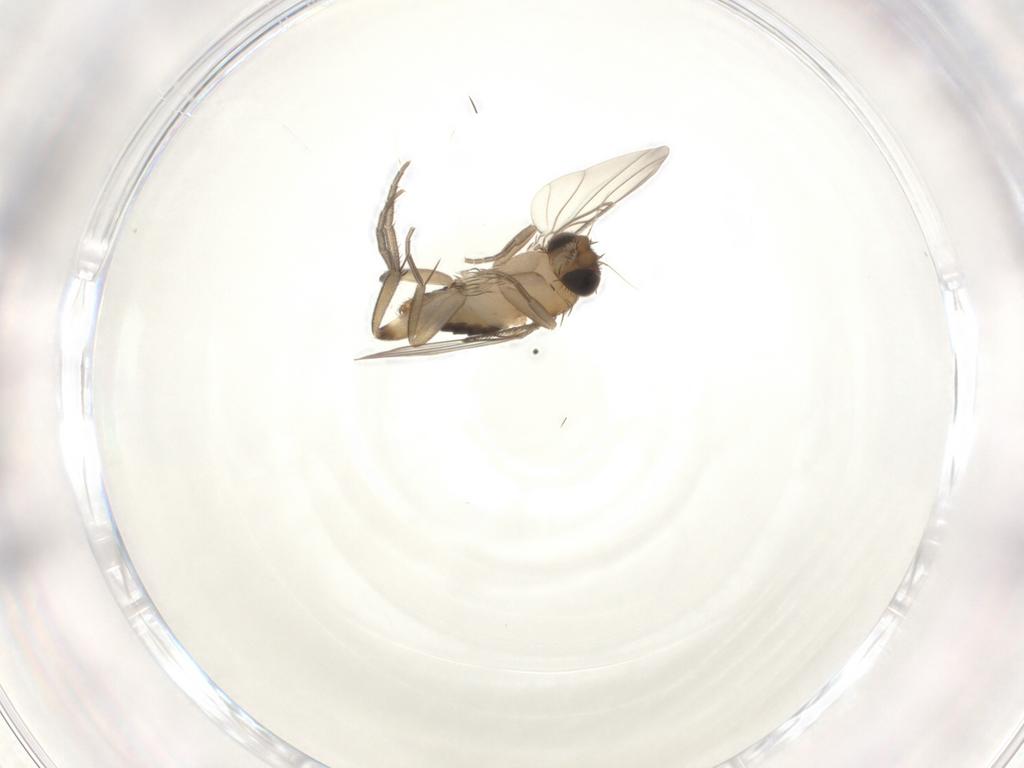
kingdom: Animalia
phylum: Arthropoda
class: Insecta
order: Diptera
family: Phoridae
